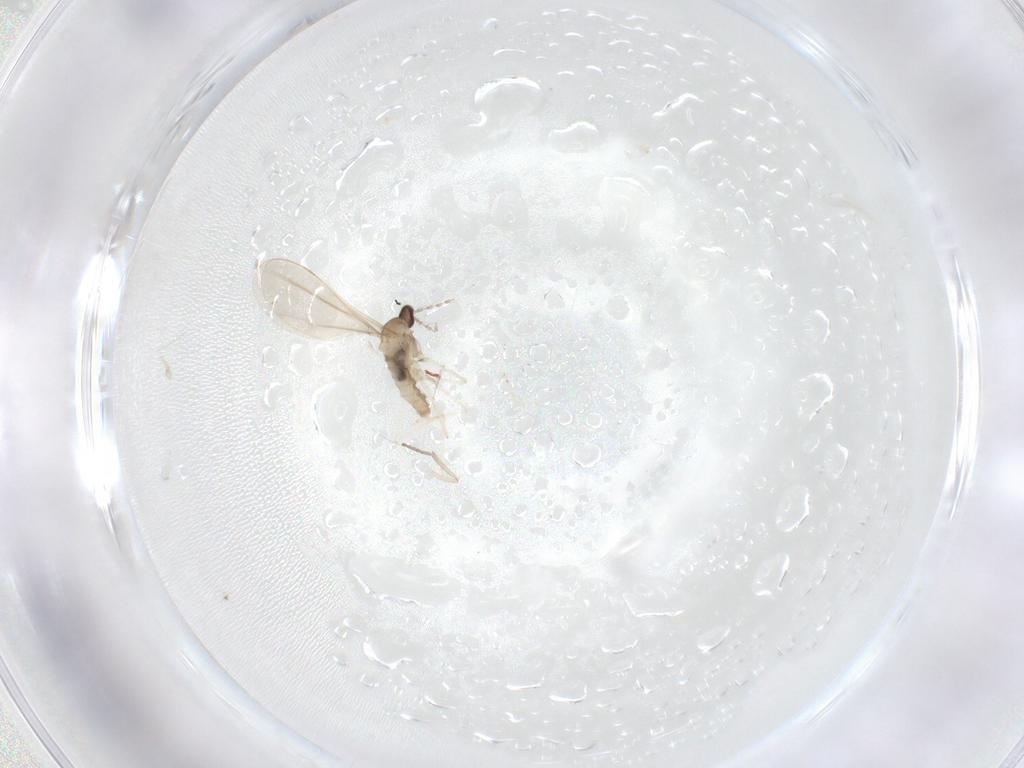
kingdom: Animalia
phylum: Arthropoda
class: Insecta
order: Diptera
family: Cecidomyiidae
